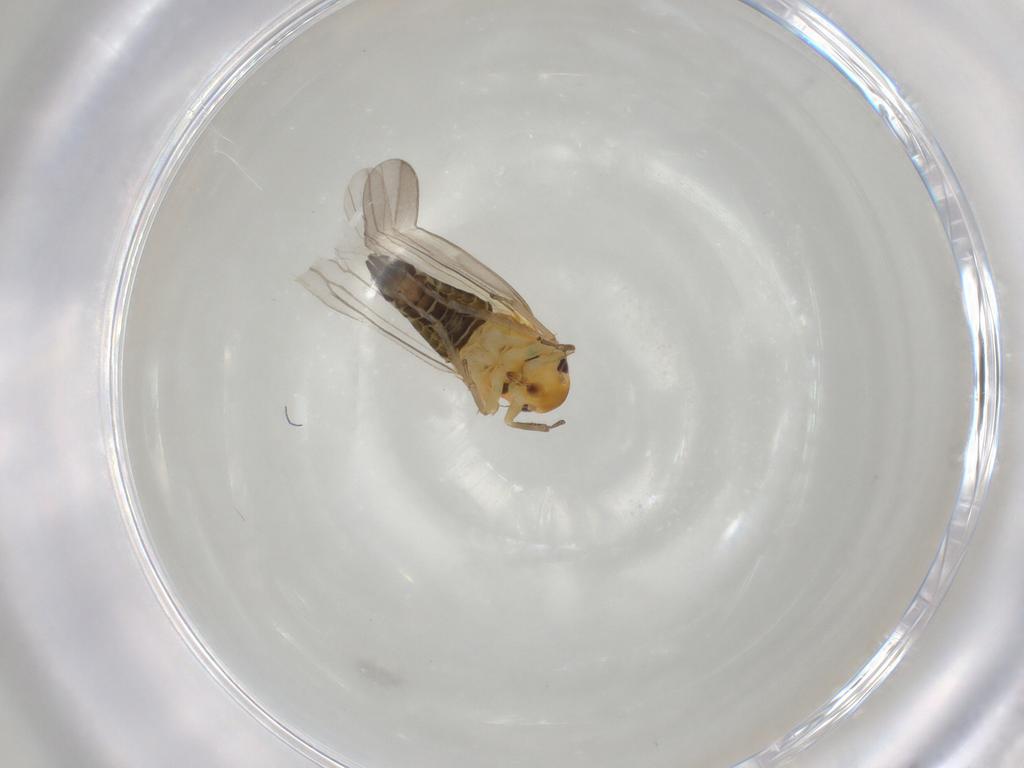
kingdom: Animalia
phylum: Arthropoda
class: Insecta
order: Hemiptera
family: Cicadellidae
